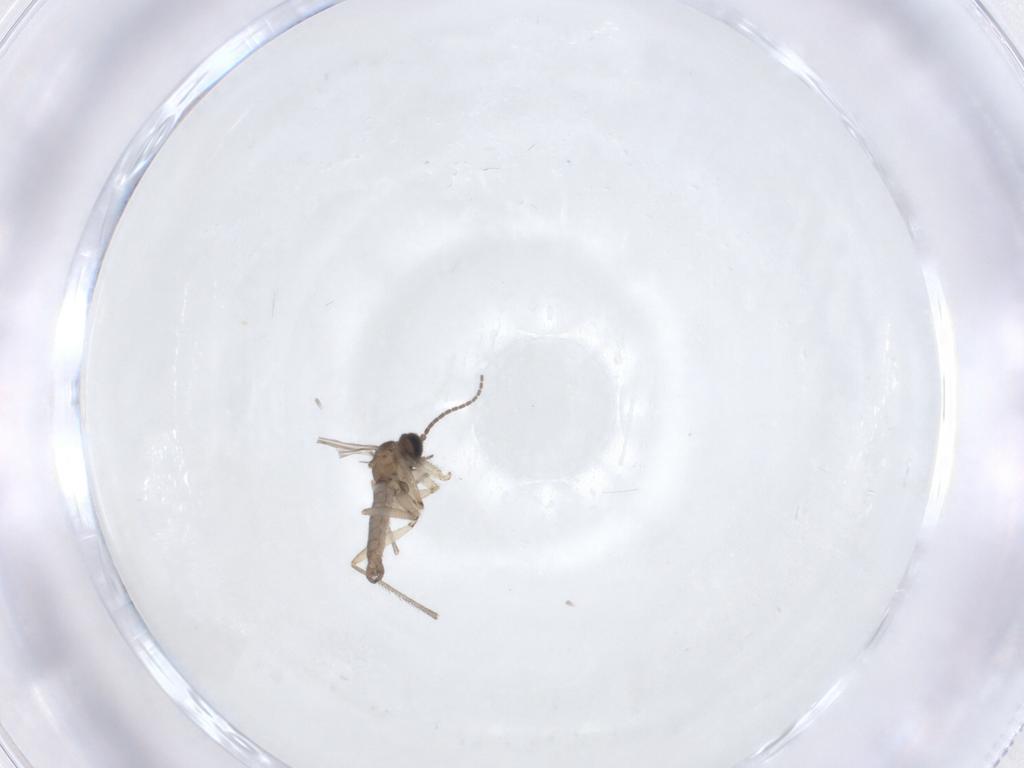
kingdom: Animalia
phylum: Arthropoda
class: Insecta
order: Diptera
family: Sciaridae
